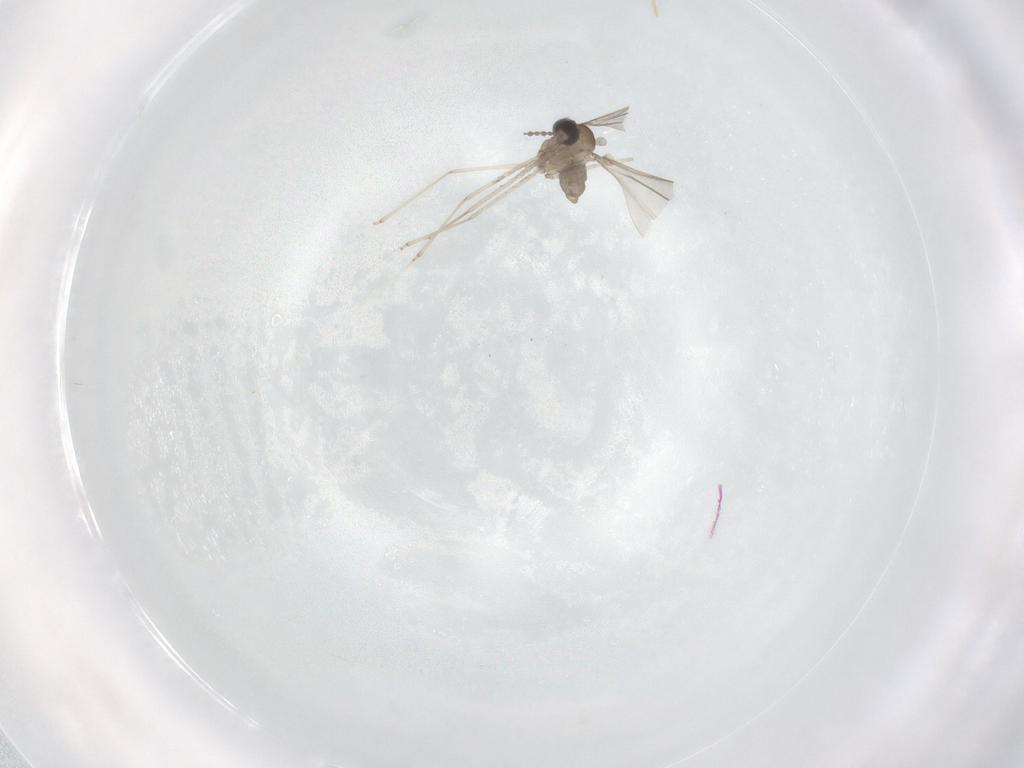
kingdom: Animalia
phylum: Arthropoda
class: Insecta
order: Diptera
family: Cecidomyiidae
